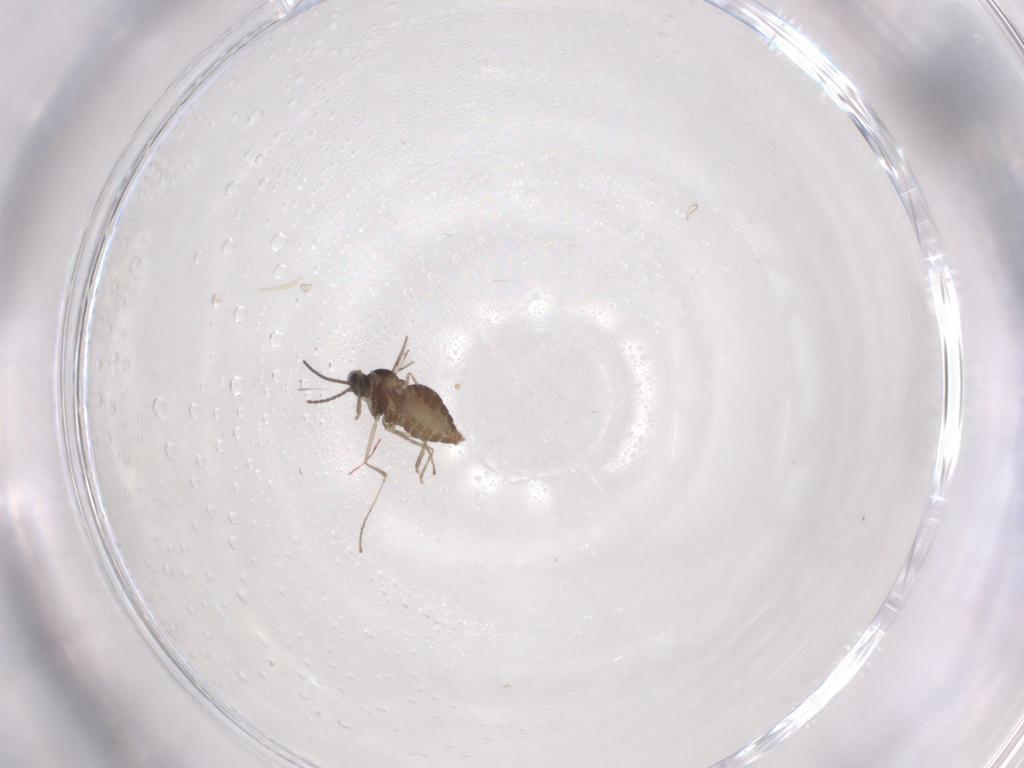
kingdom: Animalia
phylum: Arthropoda
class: Insecta
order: Diptera
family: Cecidomyiidae
